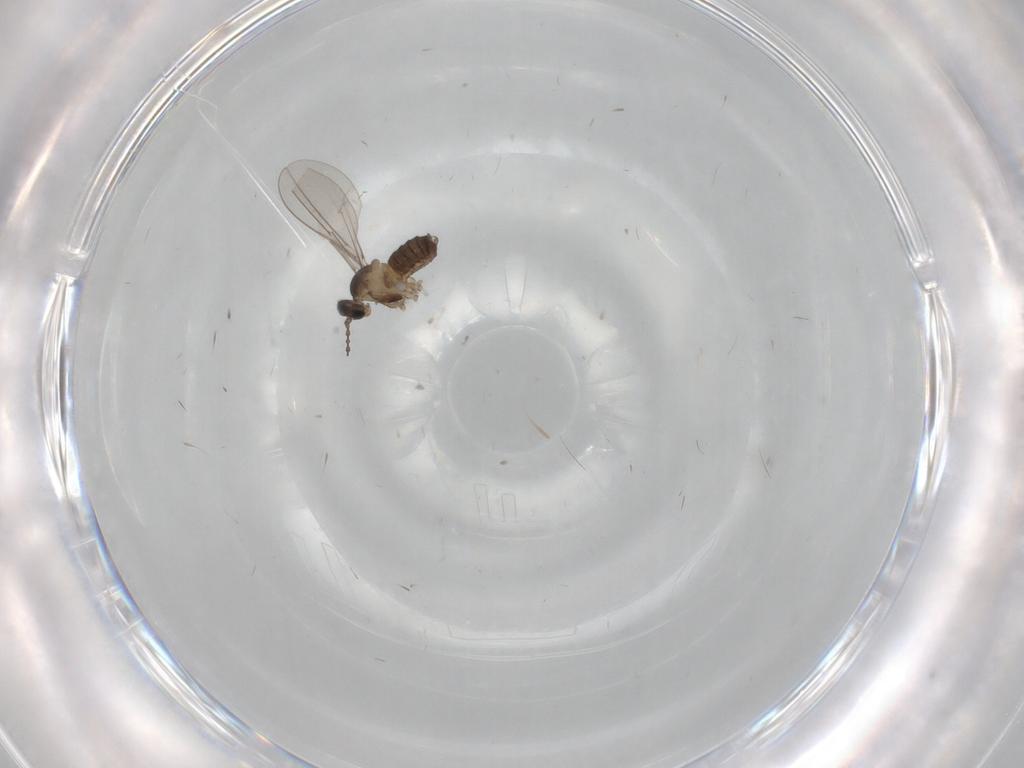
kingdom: Animalia
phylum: Arthropoda
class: Insecta
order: Diptera
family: Cecidomyiidae
